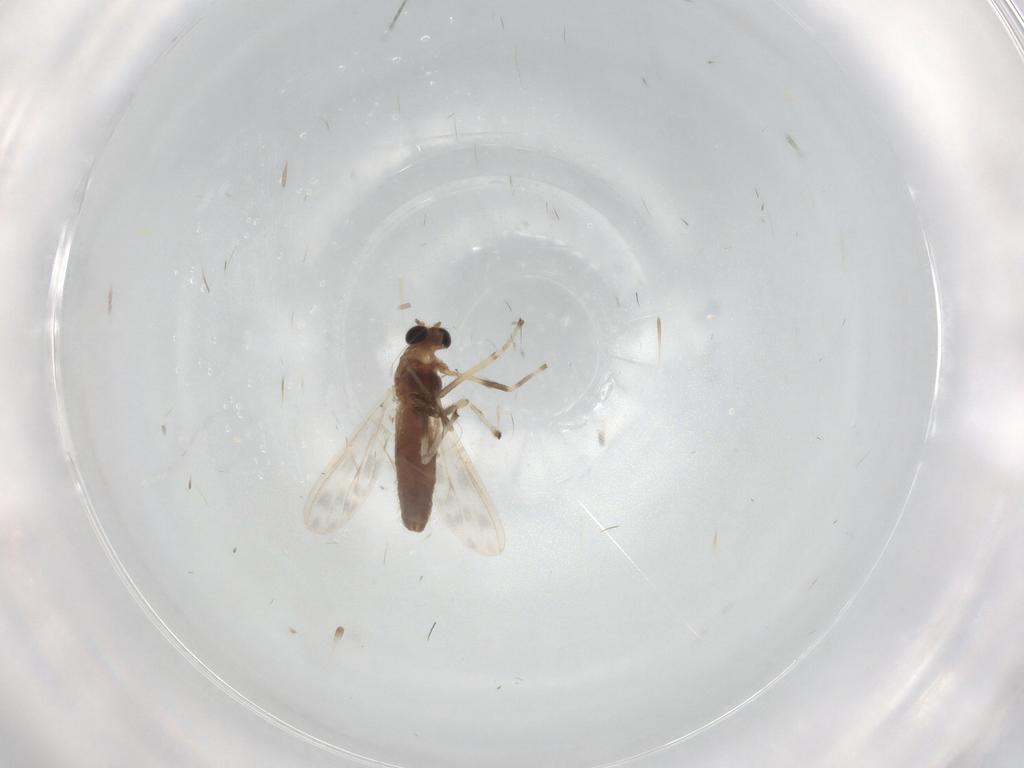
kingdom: Animalia
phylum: Arthropoda
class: Insecta
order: Diptera
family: Chironomidae
